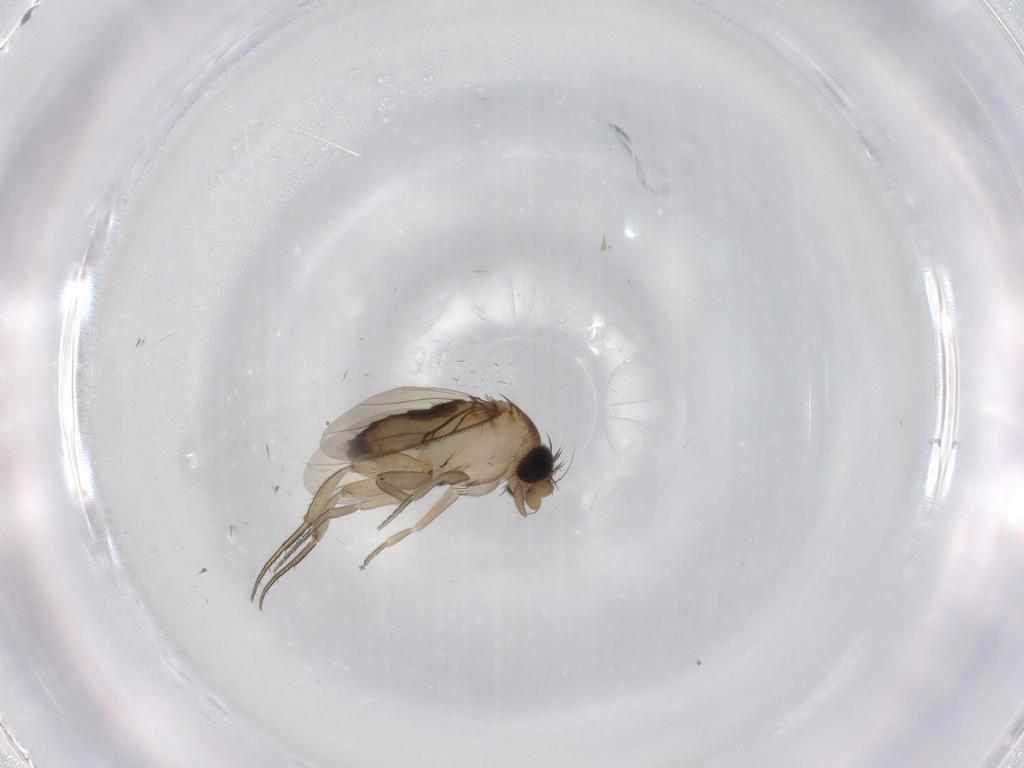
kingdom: Animalia
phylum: Arthropoda
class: Insecta
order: Diptera
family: Phoridae
